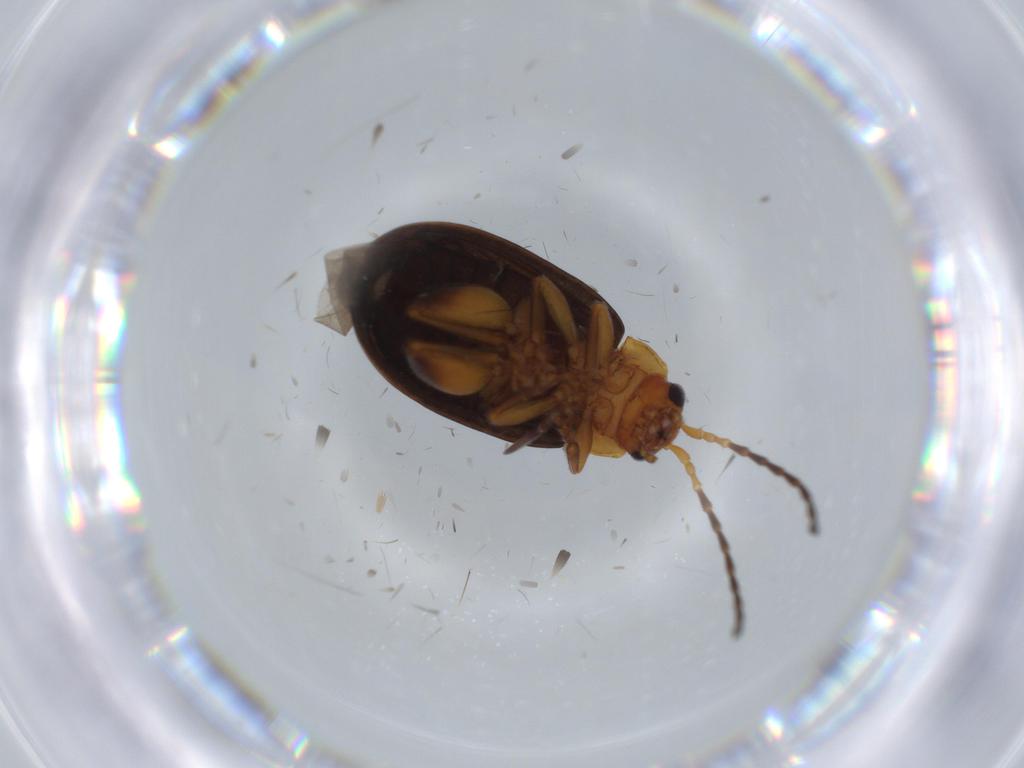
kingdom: Animalia
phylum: Arthropoda
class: Insecta
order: Coleoptera
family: Chrysomelidae
